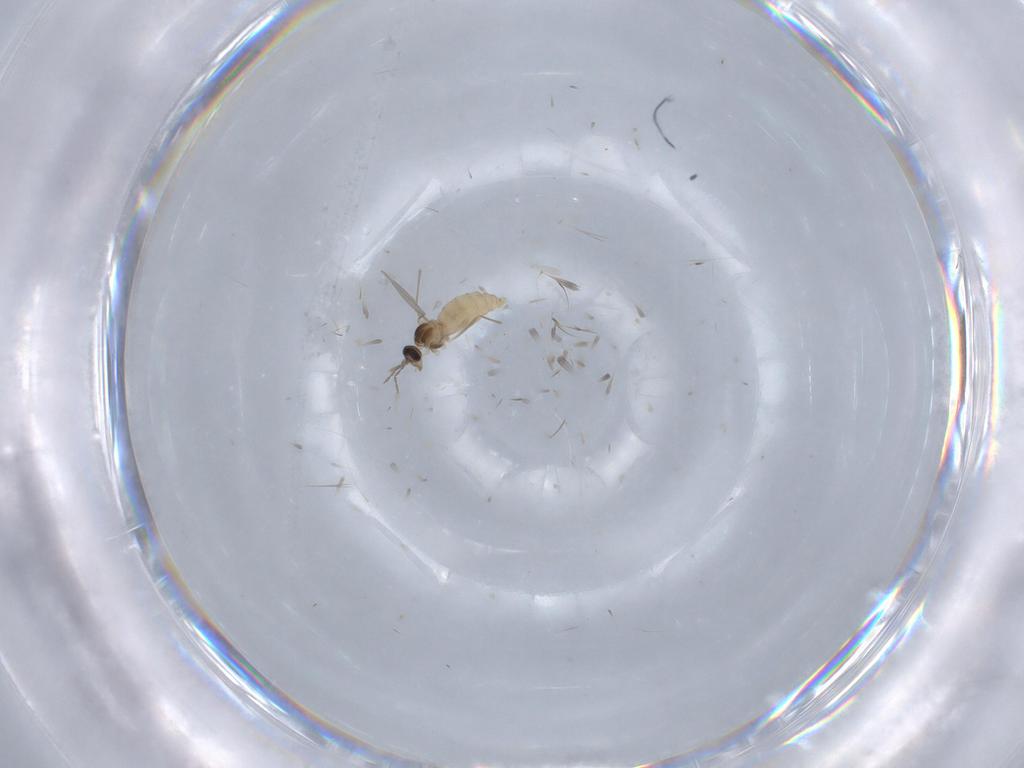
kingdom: Animalia
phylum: Arthropoda
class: Insecta
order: Diptera
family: Cecidomyiidae
